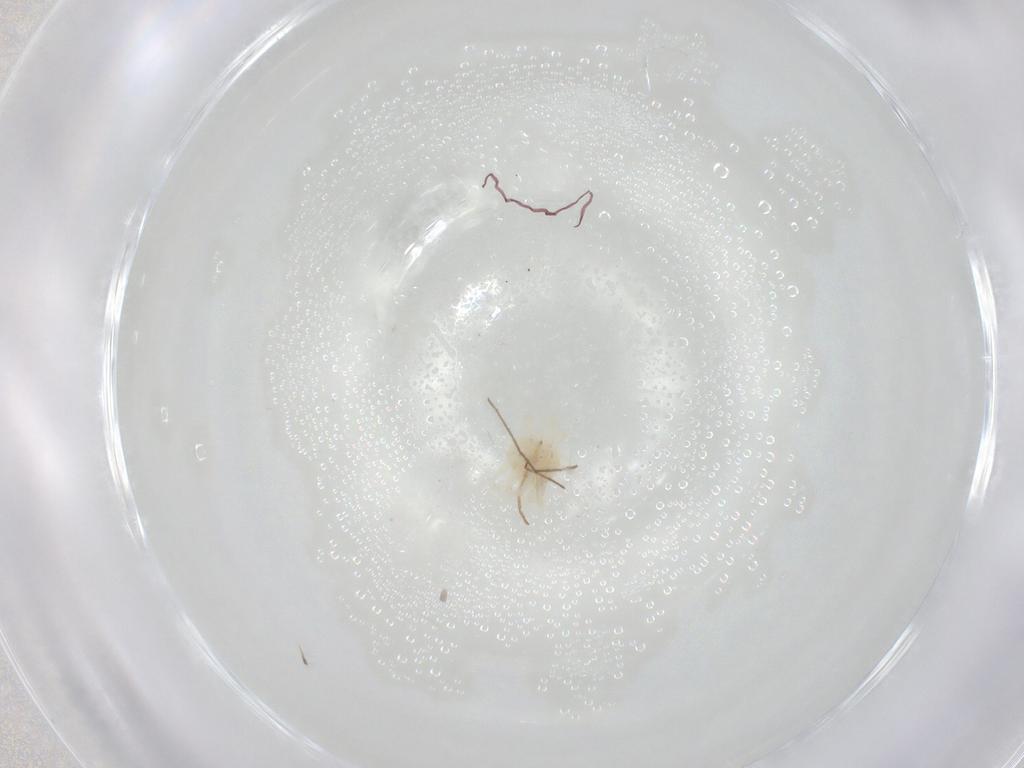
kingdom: Animalia
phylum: Arthropoda
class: Arachnida
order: Trombidiformes
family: Anystidae
